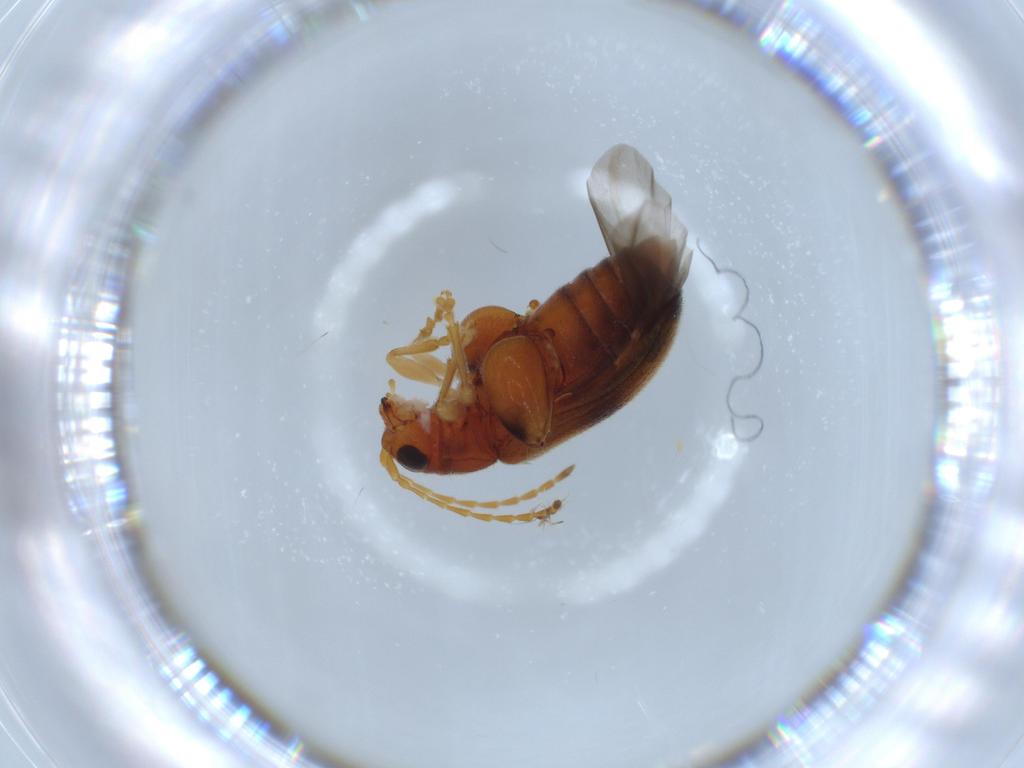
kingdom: Animalia
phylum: Arthropoda
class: Insecta
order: Coleoptera
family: Chrysomelidae
